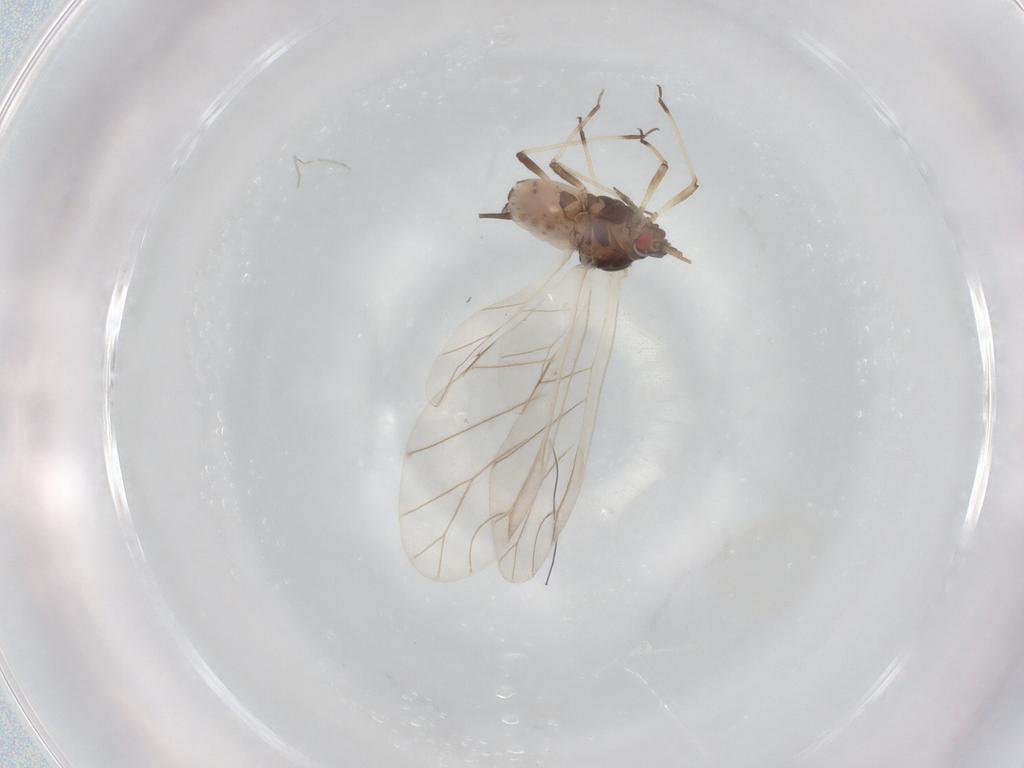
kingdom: Animalia
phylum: Arthropoda
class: Insecta
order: Hemiptera
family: Aphididae
